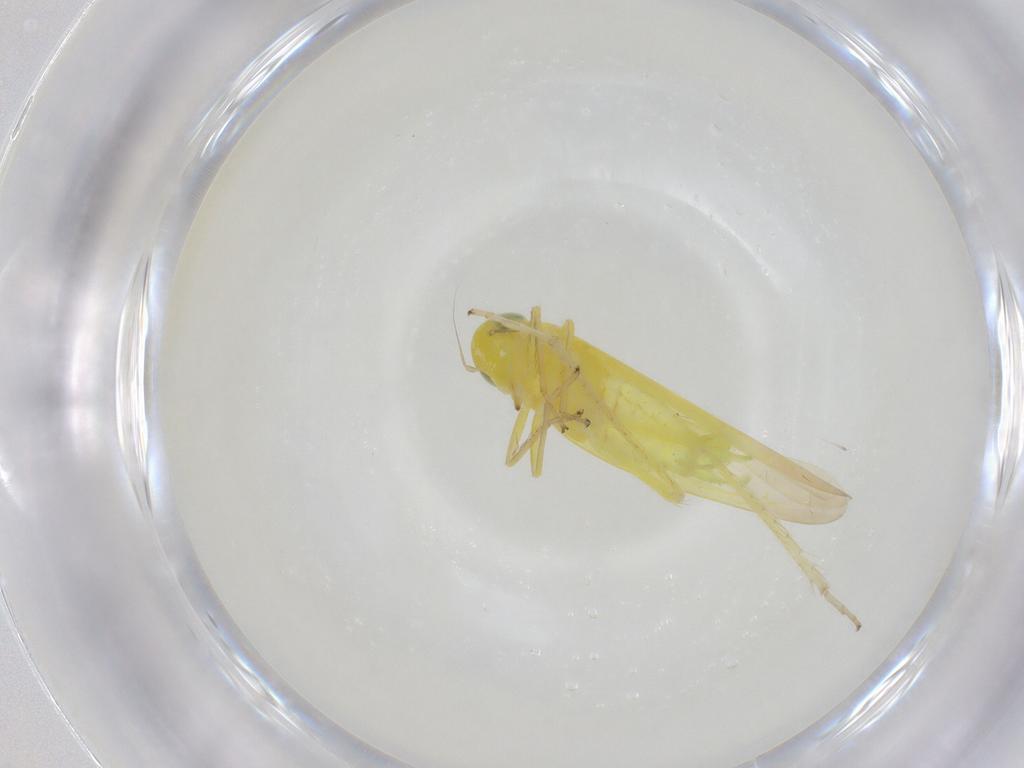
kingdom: Animalia
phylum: Arthropoda
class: Insecta
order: Hemiptera
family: Cicadellidae
